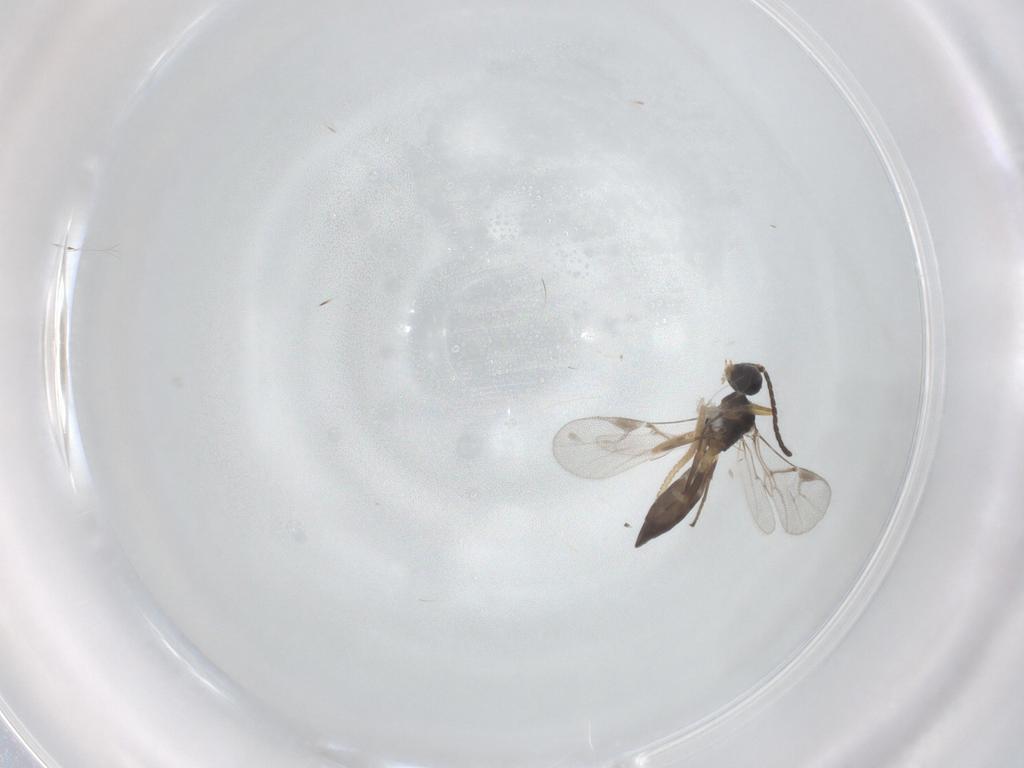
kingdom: Animalia
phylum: Arthropoda
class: Insecta
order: Hymenoptera
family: Braconidae
